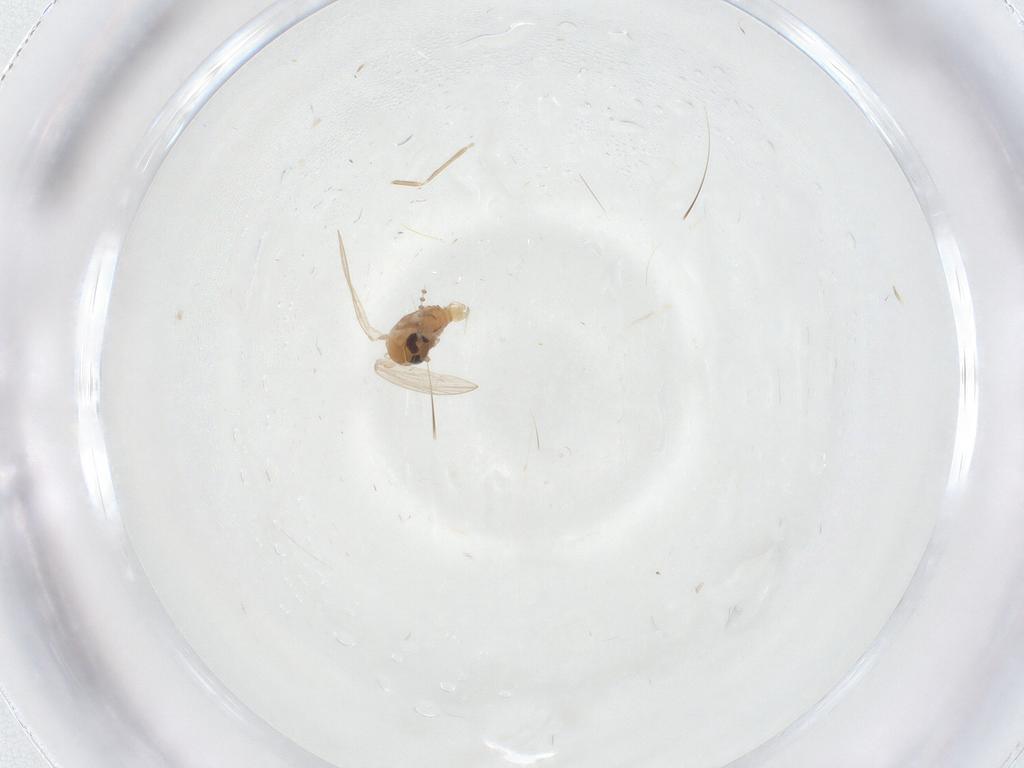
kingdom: Animalia
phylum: Arthropoda
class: Insecta
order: Diptera
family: Cecidomyiidae
